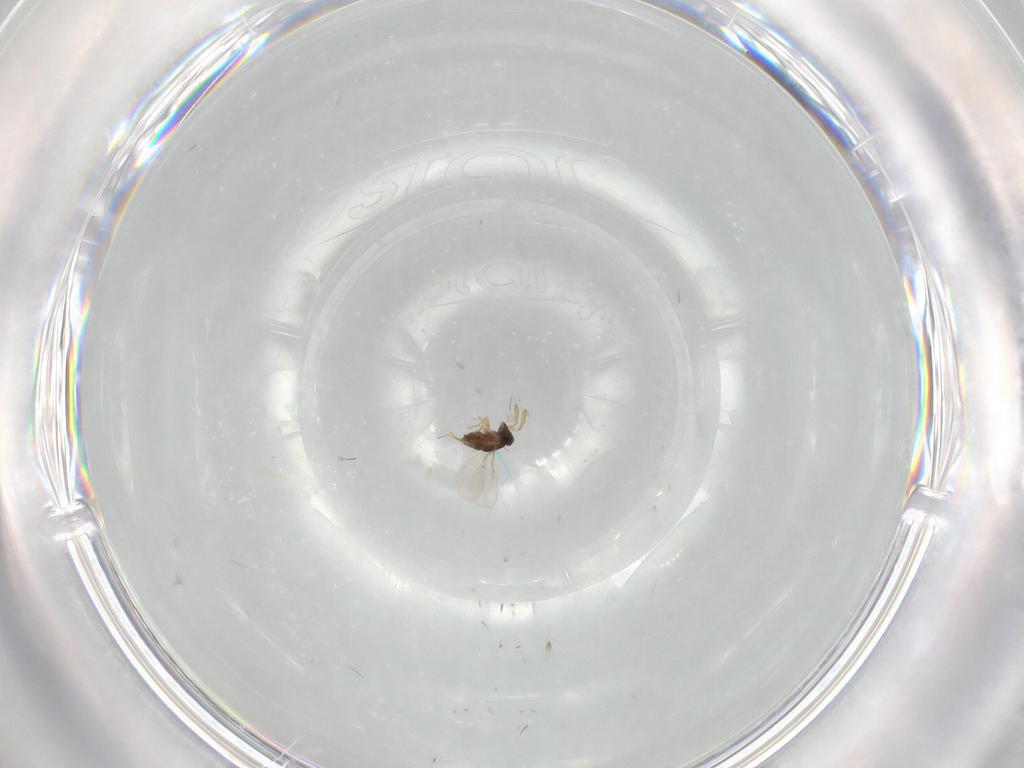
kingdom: Animalia
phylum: Arthropoda
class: Insecta
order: Hymenoptera
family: Encyrtidae
